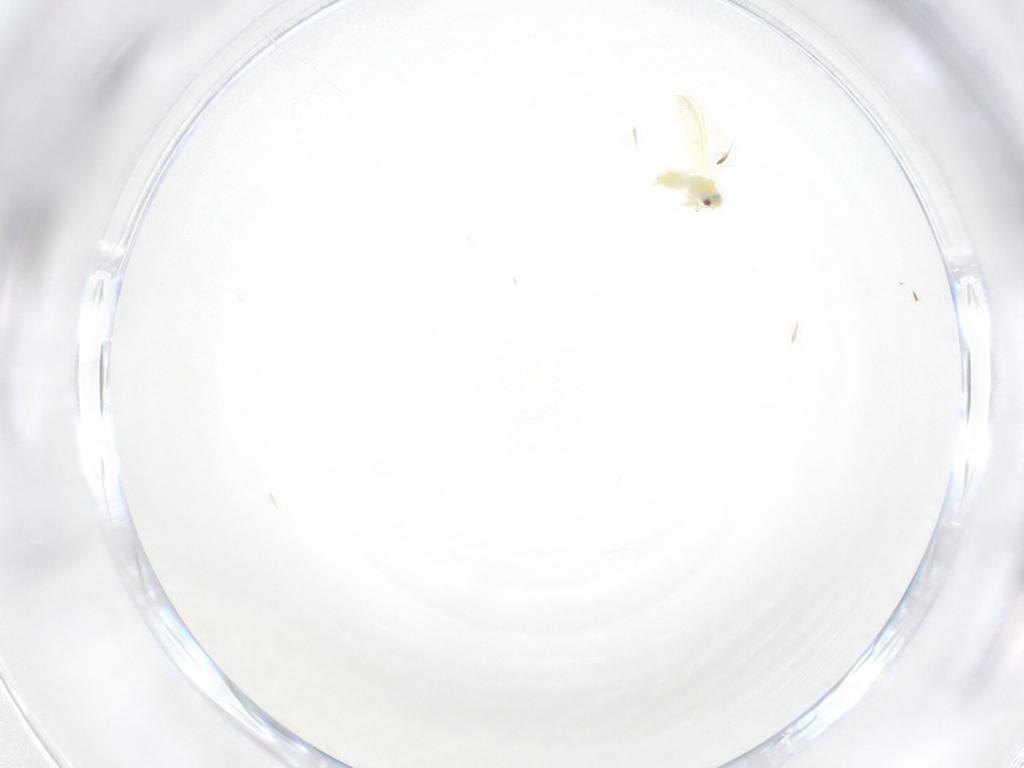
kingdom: Animalia
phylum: Arthropoda
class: Insecta
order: Hemiptera
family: Aleyrodidae
